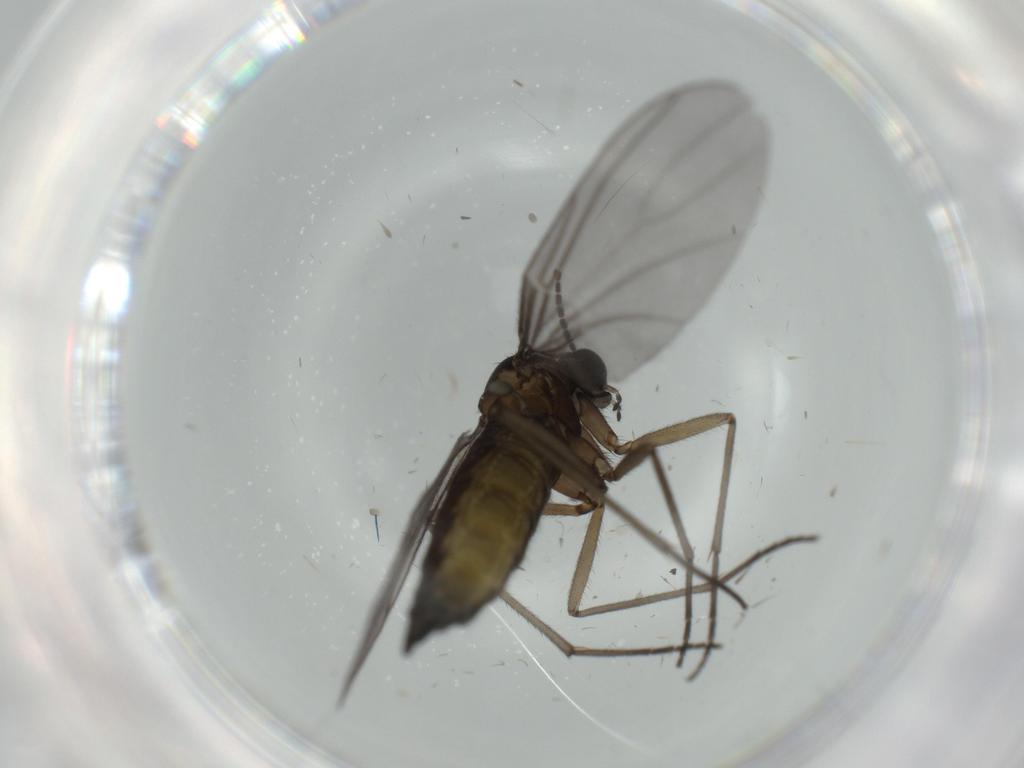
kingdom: Animalia
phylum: Arthropoda
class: Insecta
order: Diptera
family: Sciaridae
